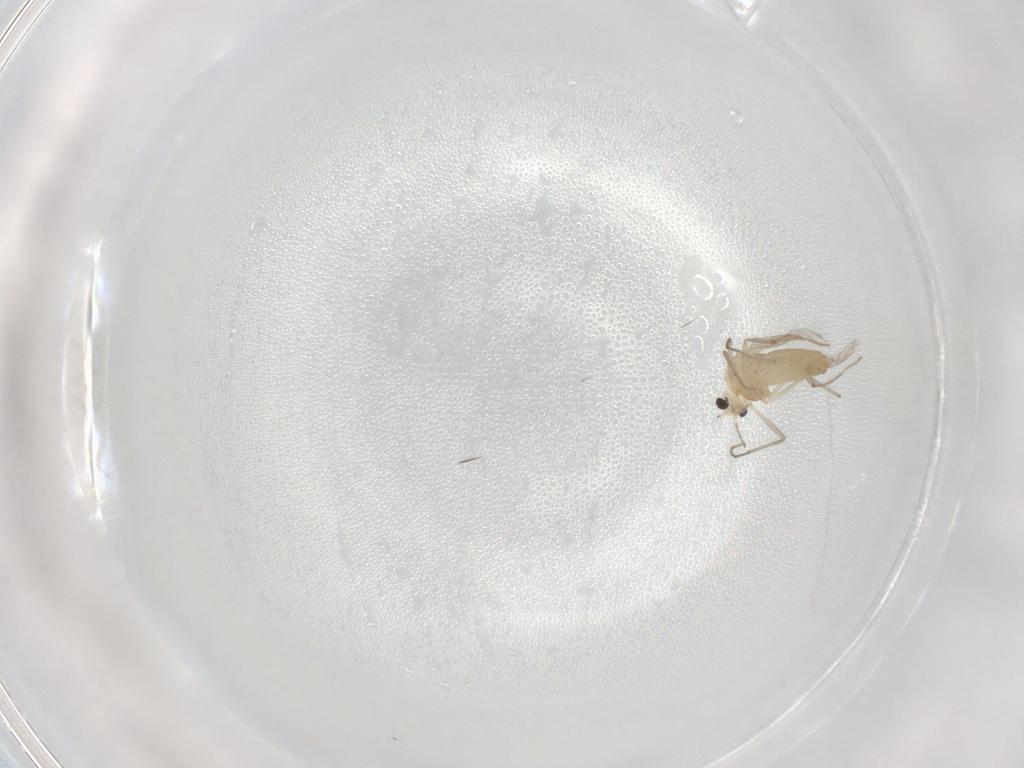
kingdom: Animalia
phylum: Arthropoda
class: Insecta
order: Diptera
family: Chironomidae
